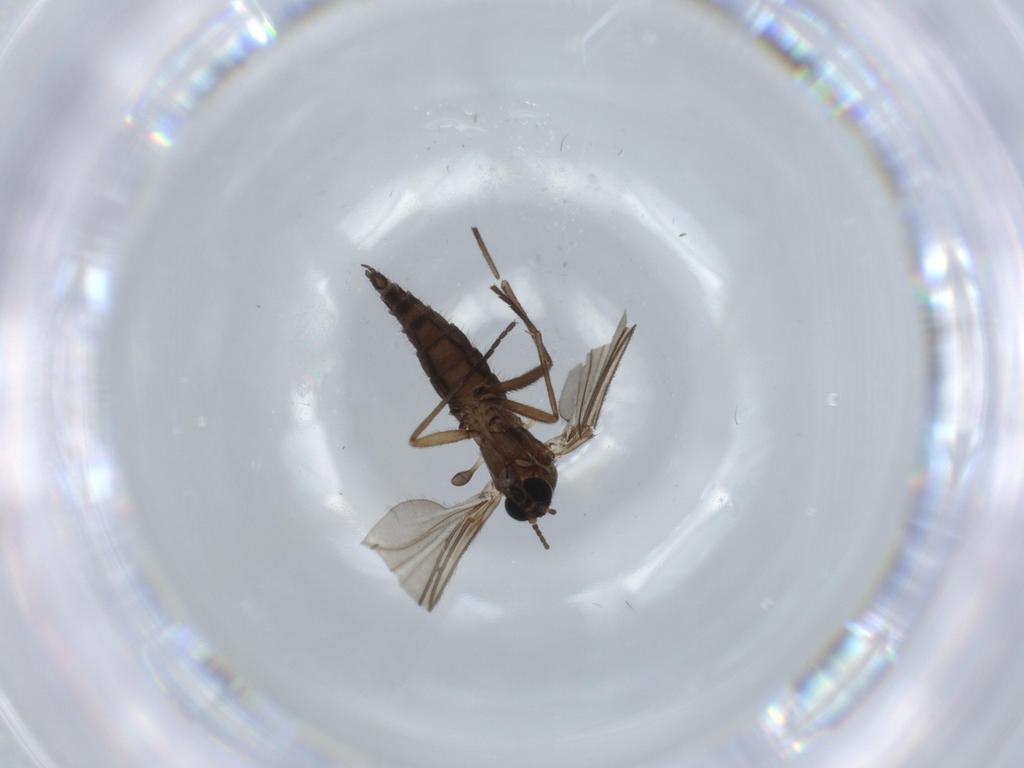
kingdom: Animalia
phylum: Arthropoda
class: Insecta
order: Diptera
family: Sciaridae
